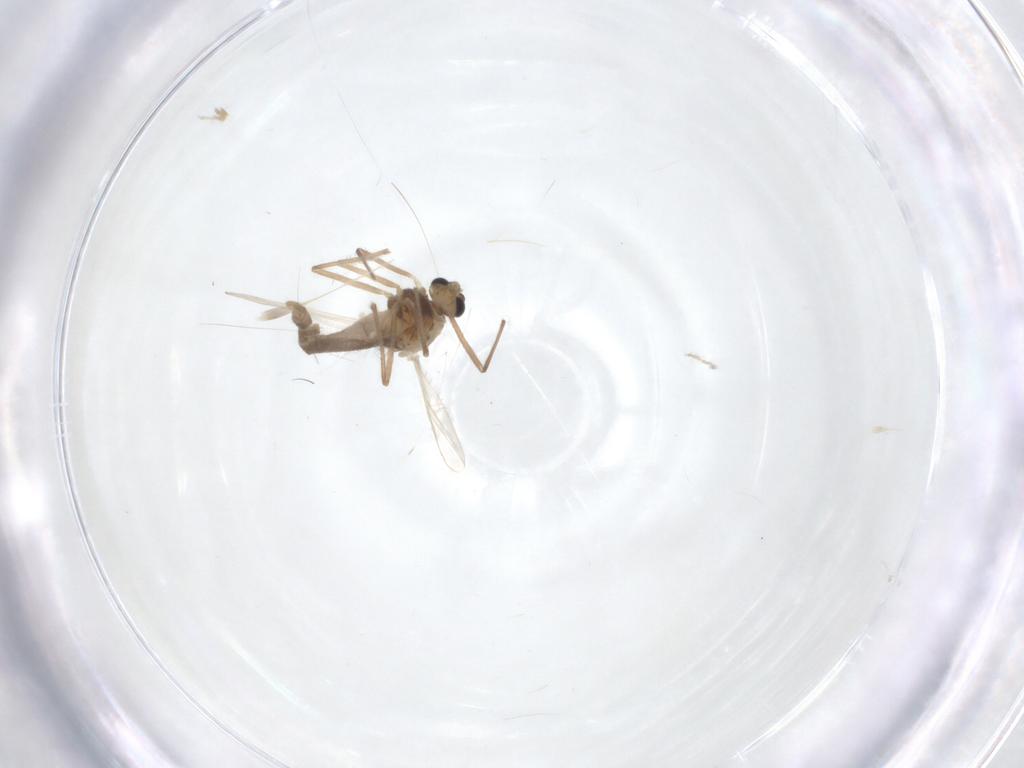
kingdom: Animalia
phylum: Arthropoda
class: Insecta
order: Diptera
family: Chironomidae
